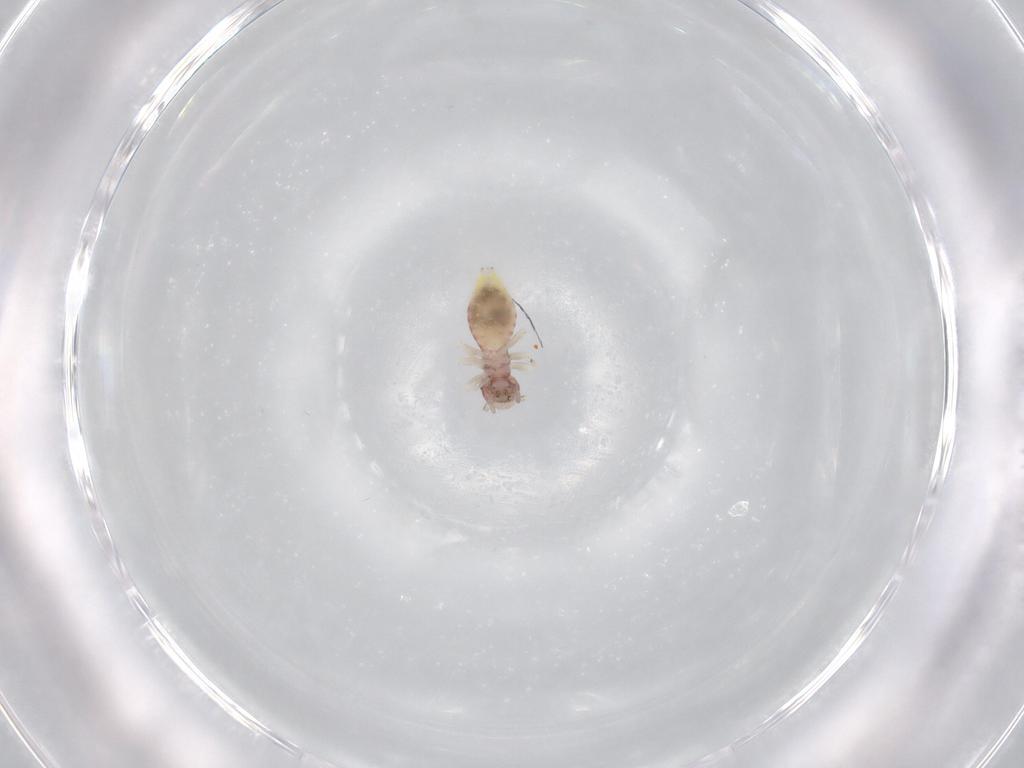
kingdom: Animalia
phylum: Arthropoda
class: Insecta
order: Psocodea
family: Caeciliusidae
